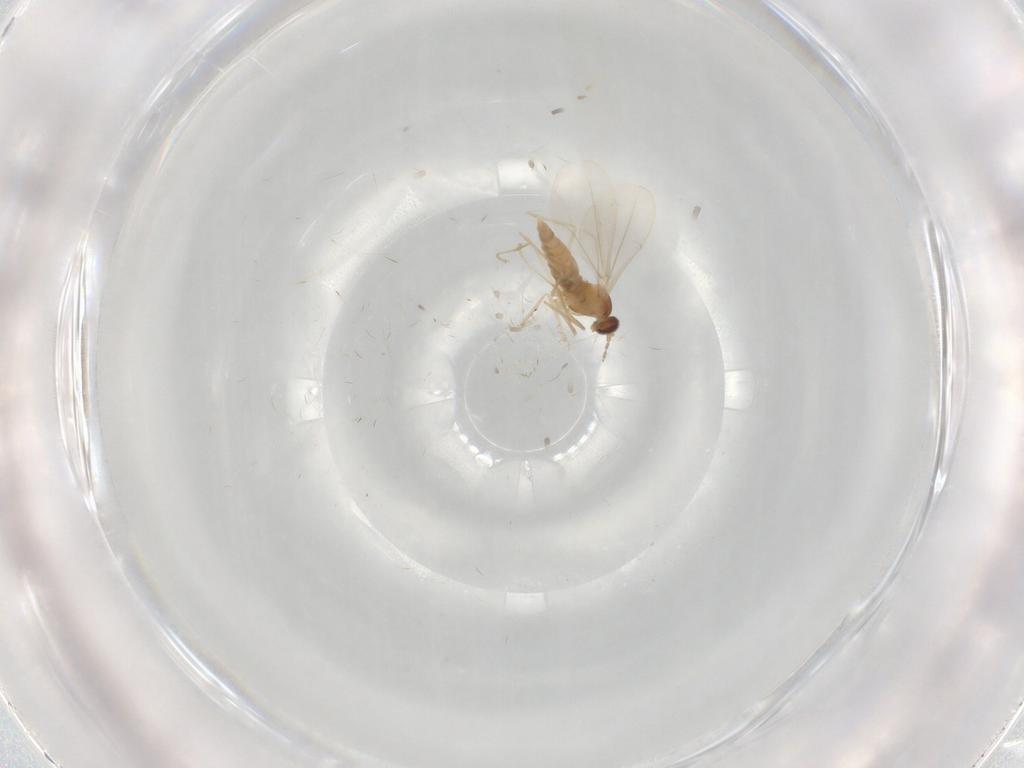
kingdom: Animalia
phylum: Arthropoda
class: Insecta
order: Diptera
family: Cecidomyiidae
